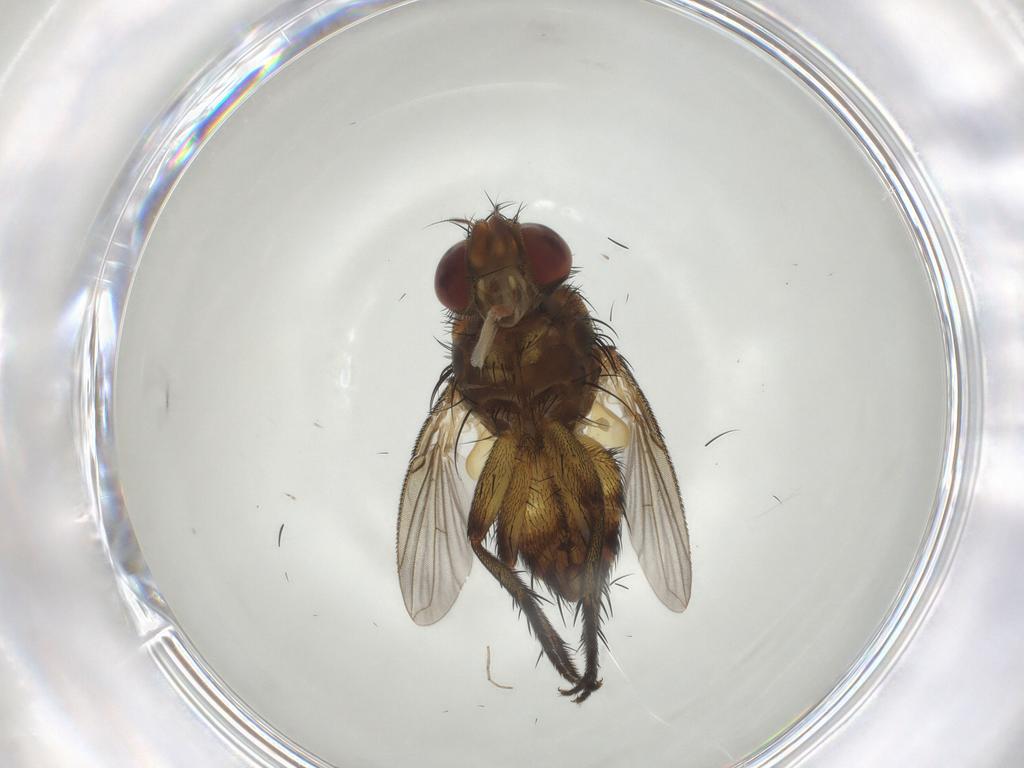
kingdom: Animalia
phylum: Arthropoda
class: Insecta
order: Diptera
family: Tachinidae
